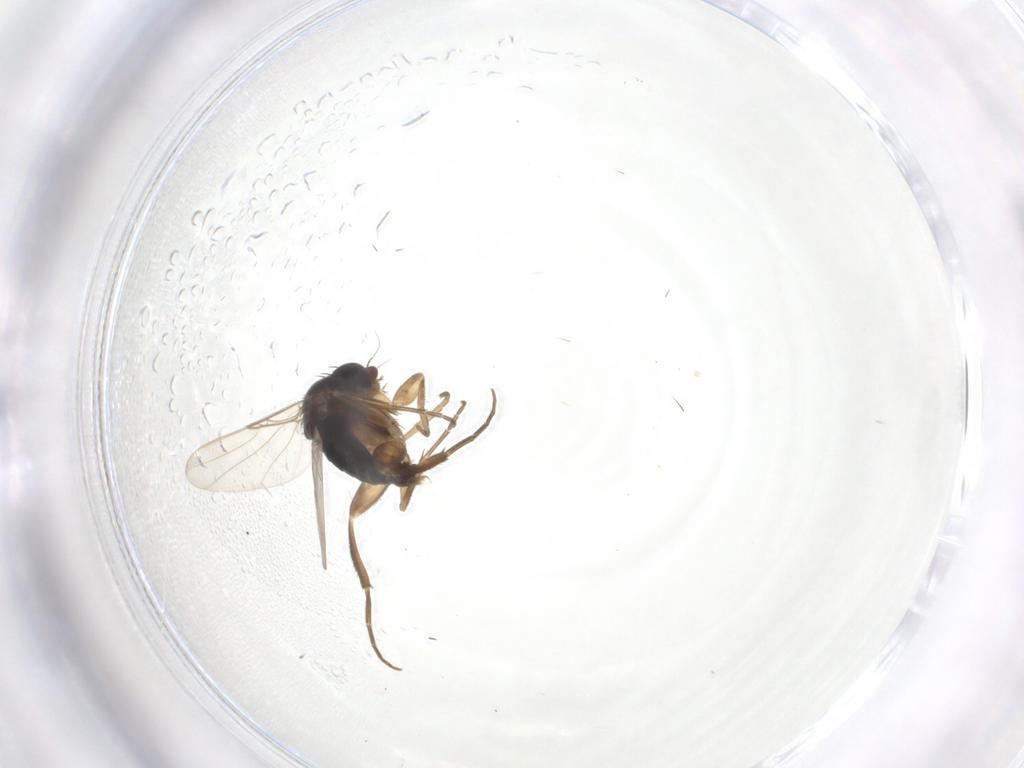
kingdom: Animalia
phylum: Arthropoda
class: Insecta
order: Diptera
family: Phoridae
